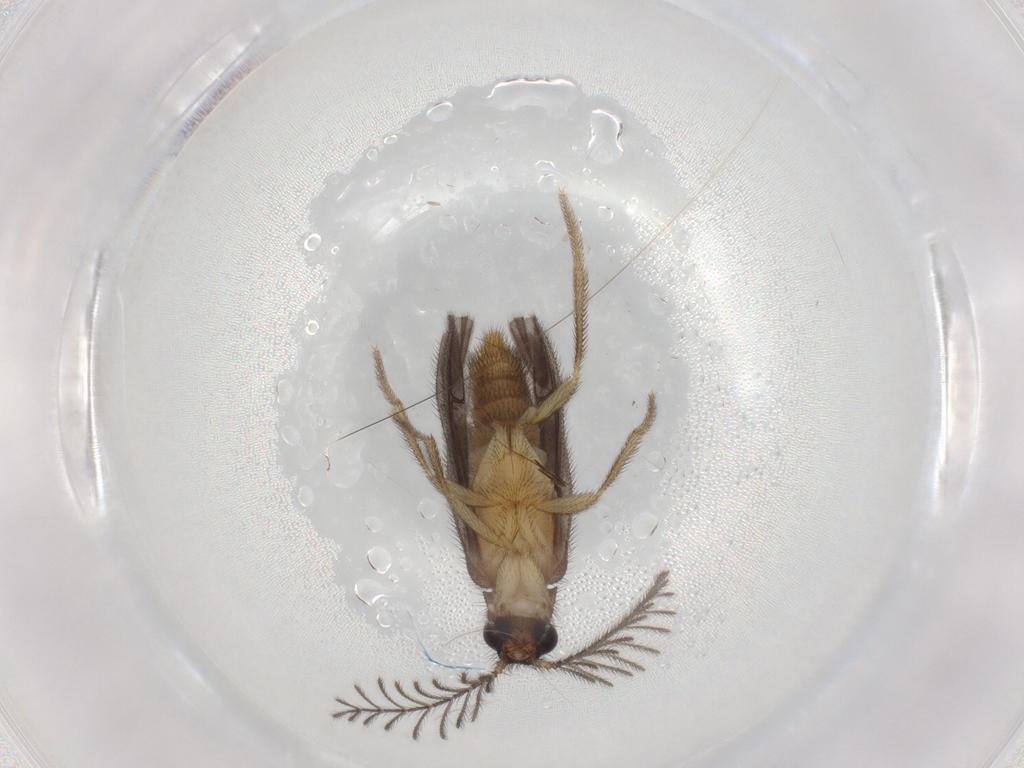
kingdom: Animalia
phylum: Arthropoda
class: Insecta
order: Coleoptera
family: Phengodidae
